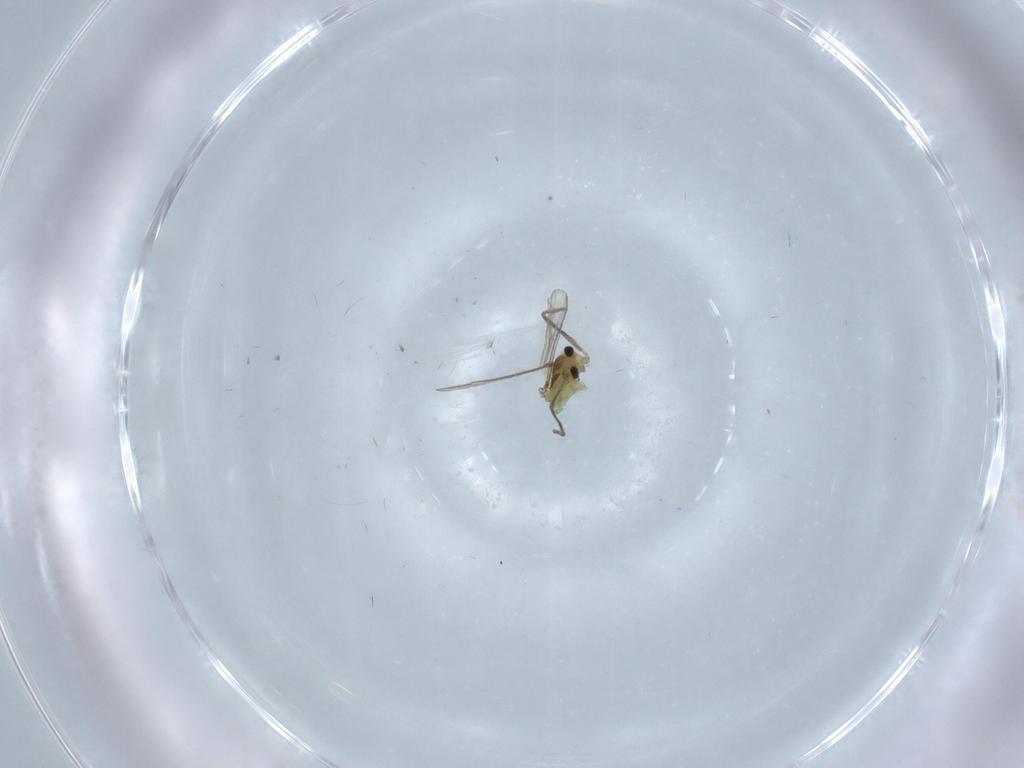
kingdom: Animalia
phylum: Arthropoda
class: Insecta
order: Diptera
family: Chironomidae
